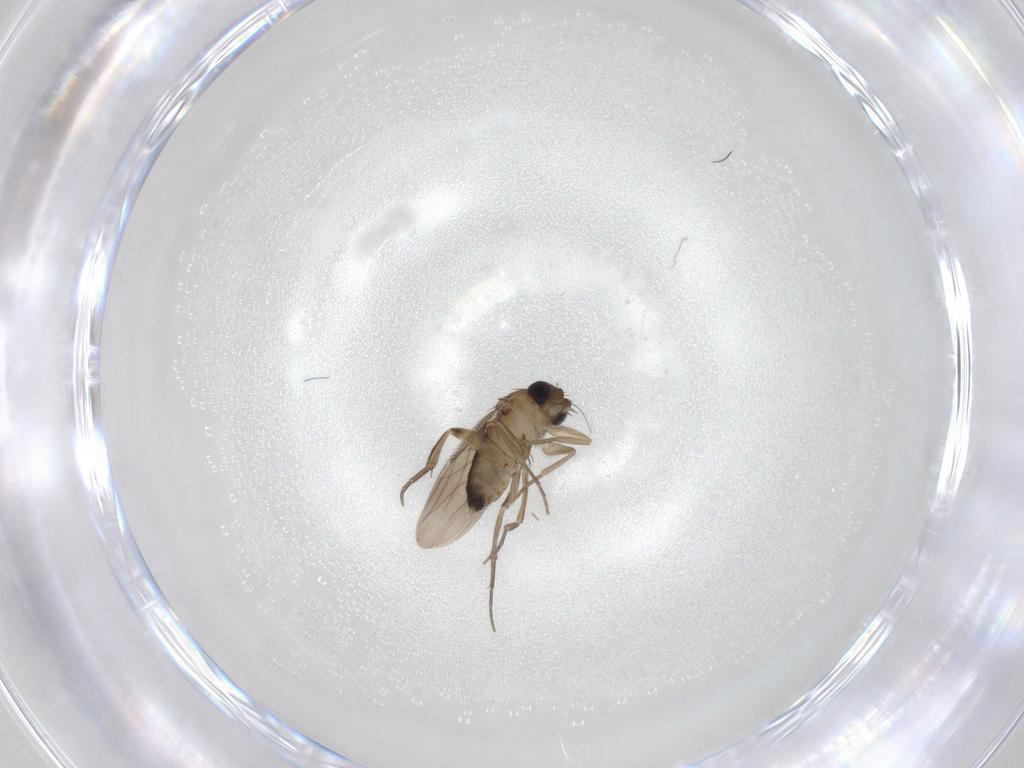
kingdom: Animalia
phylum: Arthropoda
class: Insecta
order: Diptera
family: Phoridae
